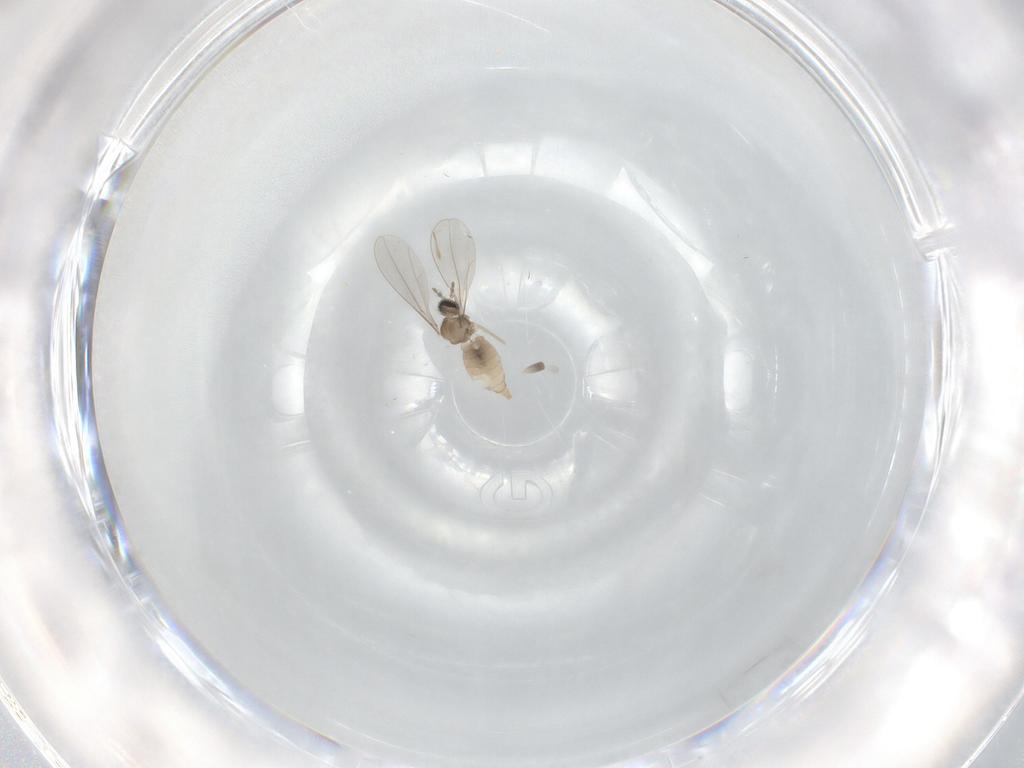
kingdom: Animalia
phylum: Arthropoda
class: Insecta
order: Diptera
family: Cecidomyiidae
